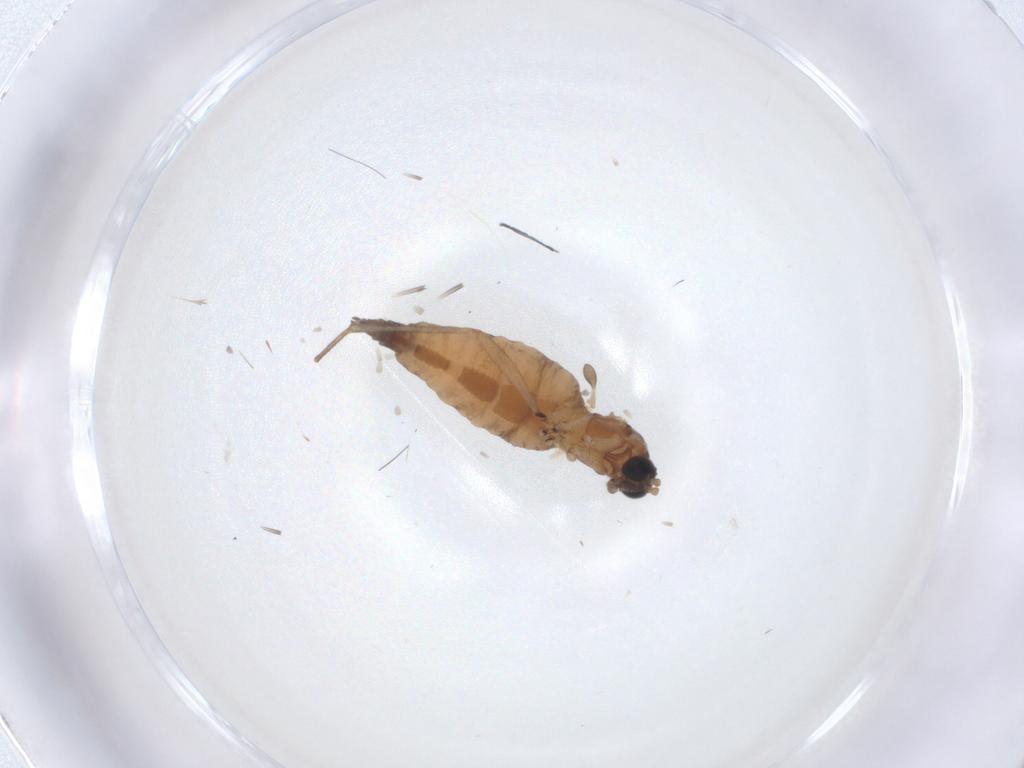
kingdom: Animalia
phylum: Arthropoda
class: Insecta
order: Diptera
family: Sciaridae
